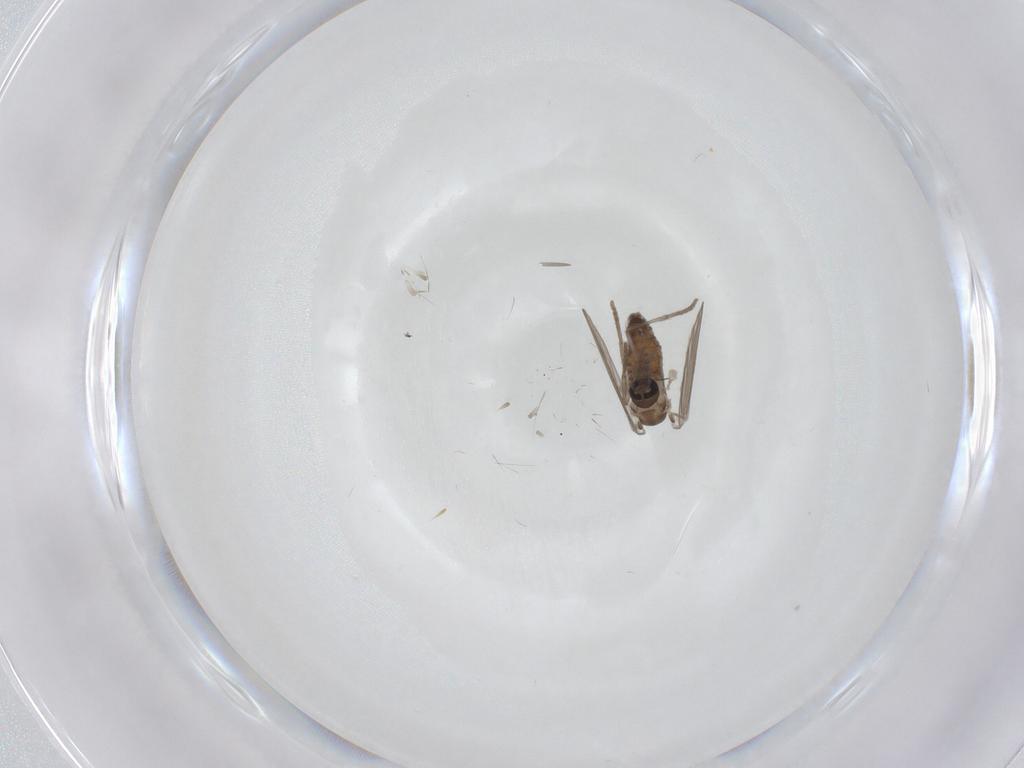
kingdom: Animalia
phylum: Arthropoda
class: Insecta
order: Diptera
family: Psychodidae
